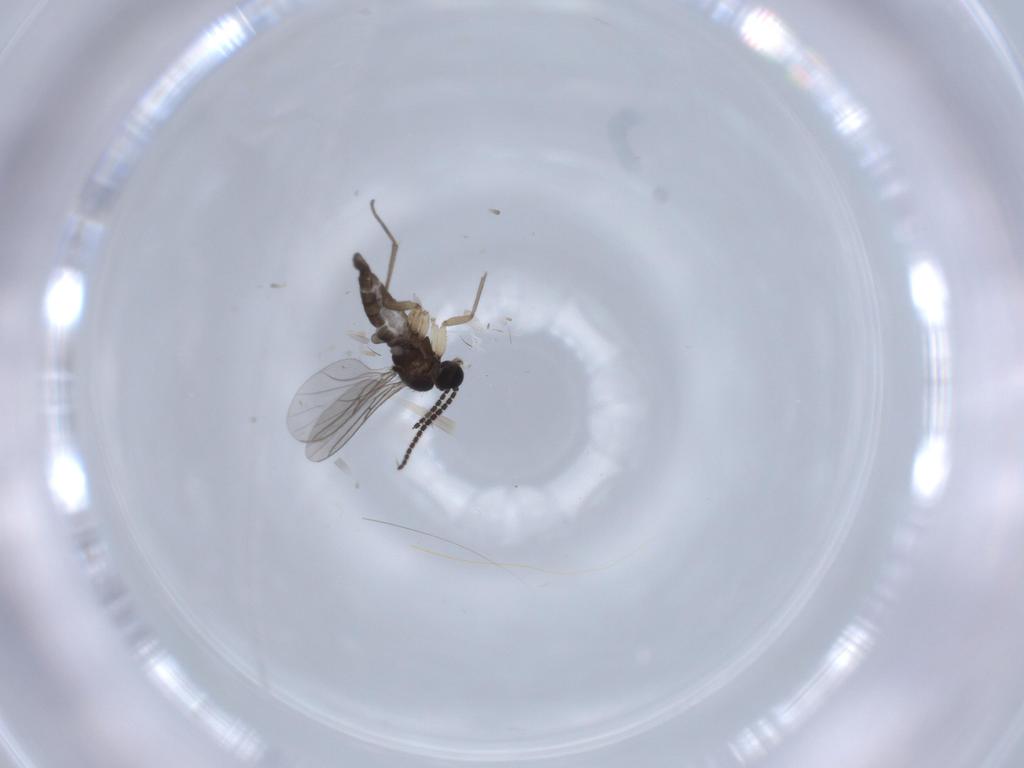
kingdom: Animalia
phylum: Arthropoda
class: Insecta
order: Diptera
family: Sciaridae
